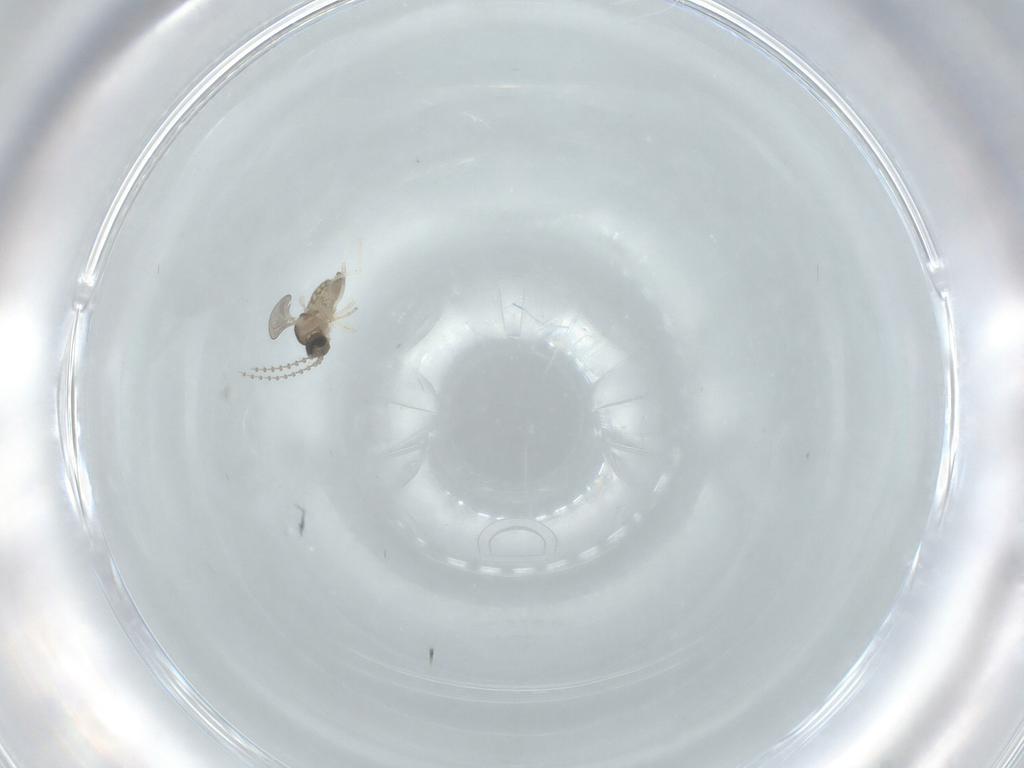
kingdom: Animalia
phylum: Arthropoda
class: Insecta
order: Diptera
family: Cecidomyiidae
